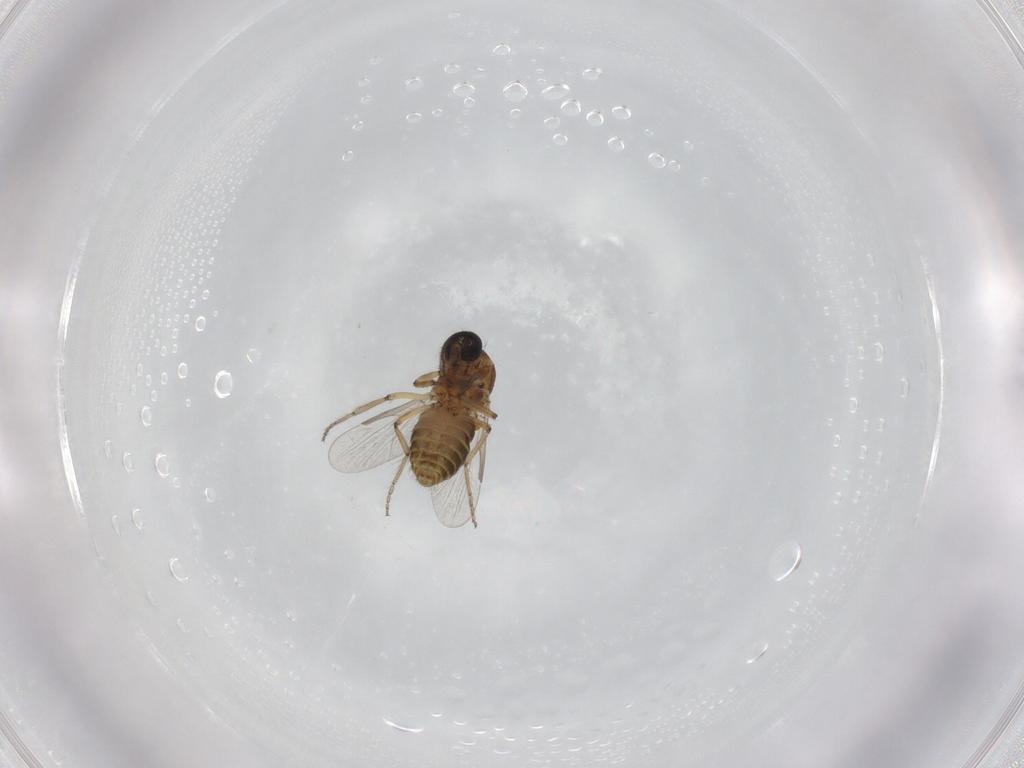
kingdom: Animalia
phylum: Arthropoda
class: Insecta
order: Diptera
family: Ceratopogonidae
